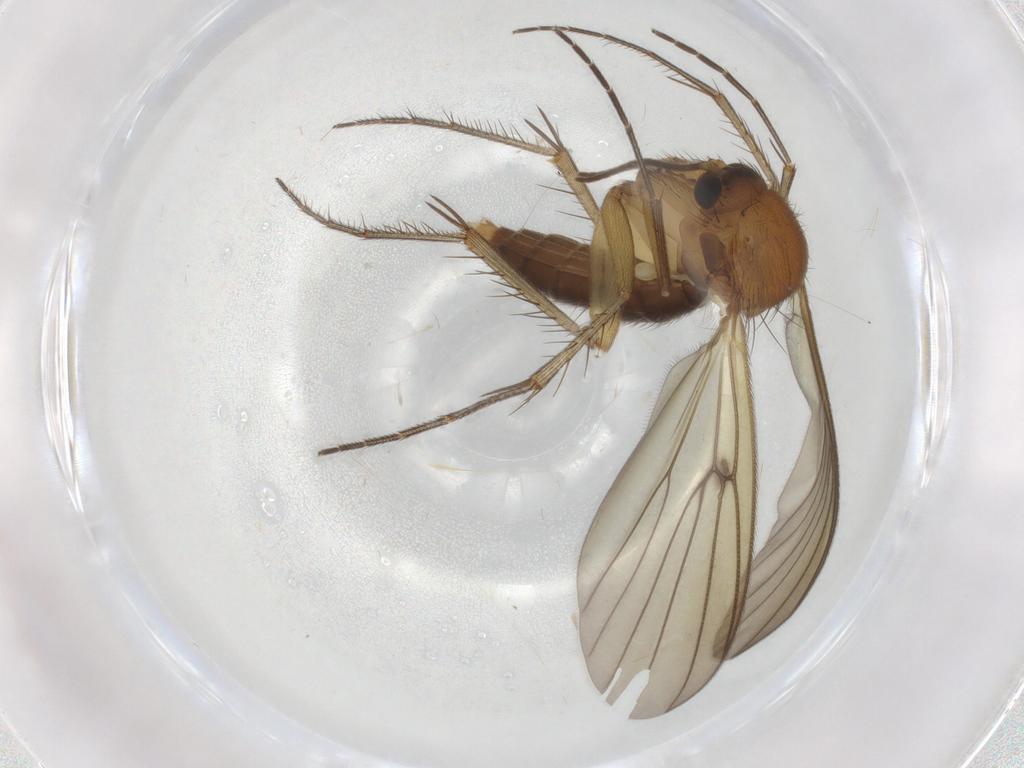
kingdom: Animalia
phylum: Arthropoda
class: Insecta
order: Diptera
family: Mycetophilidae
